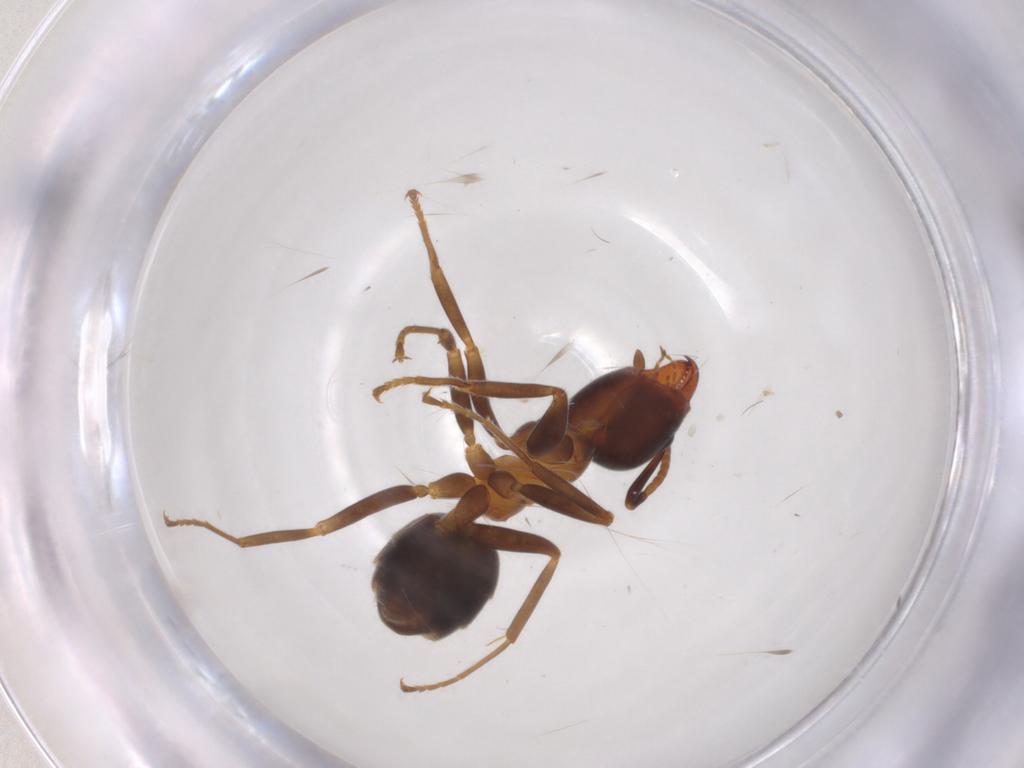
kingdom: Animalia
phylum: Arthropoda
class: Insecta
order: Hymenoptera
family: Formicidae
